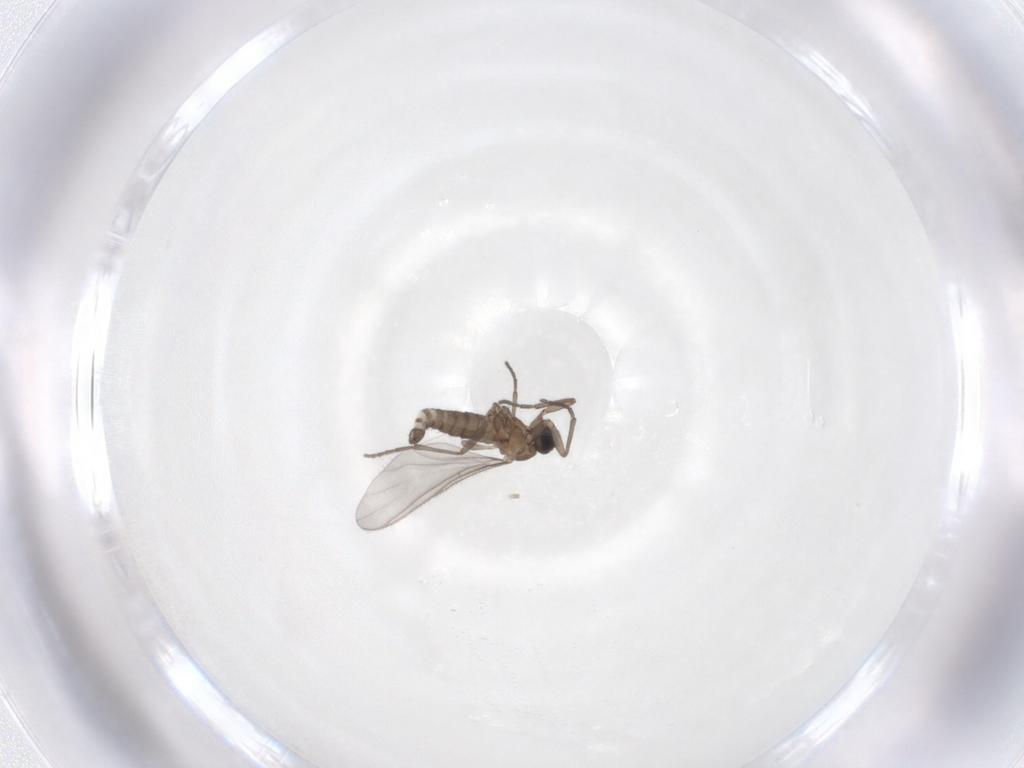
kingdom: Animalia
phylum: Arthropoda
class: Insecta
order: Diptera
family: Sciaridae
